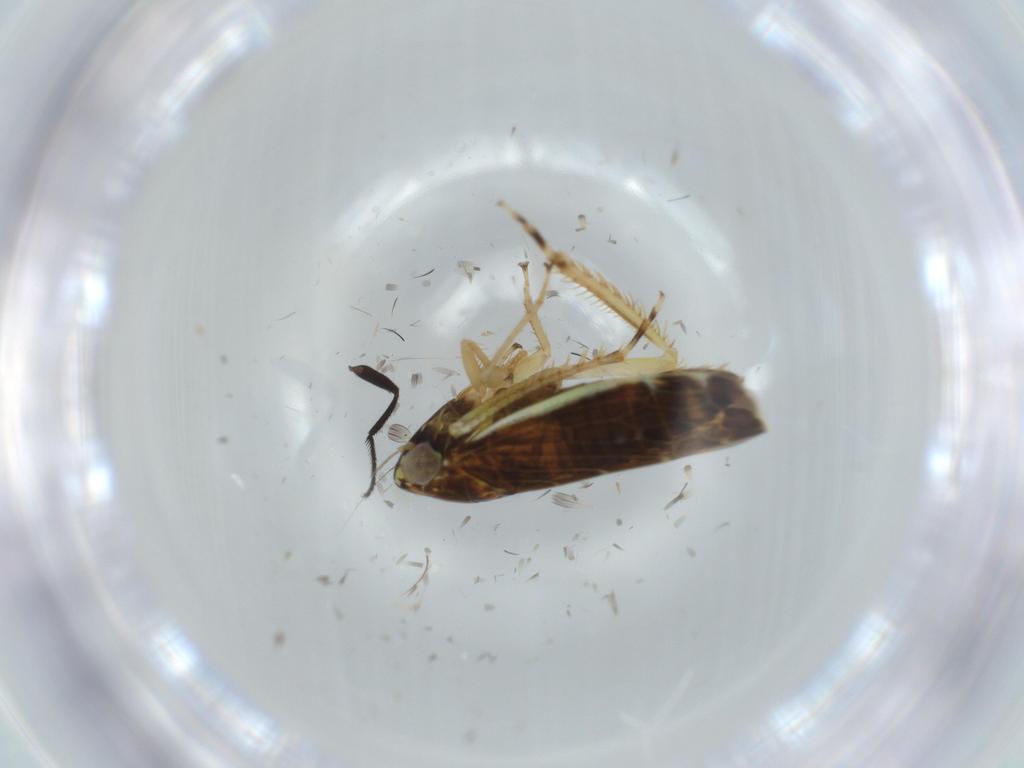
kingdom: Animalia
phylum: Arthropoda
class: Insecta
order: Hemiptera
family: Cicadellidae
